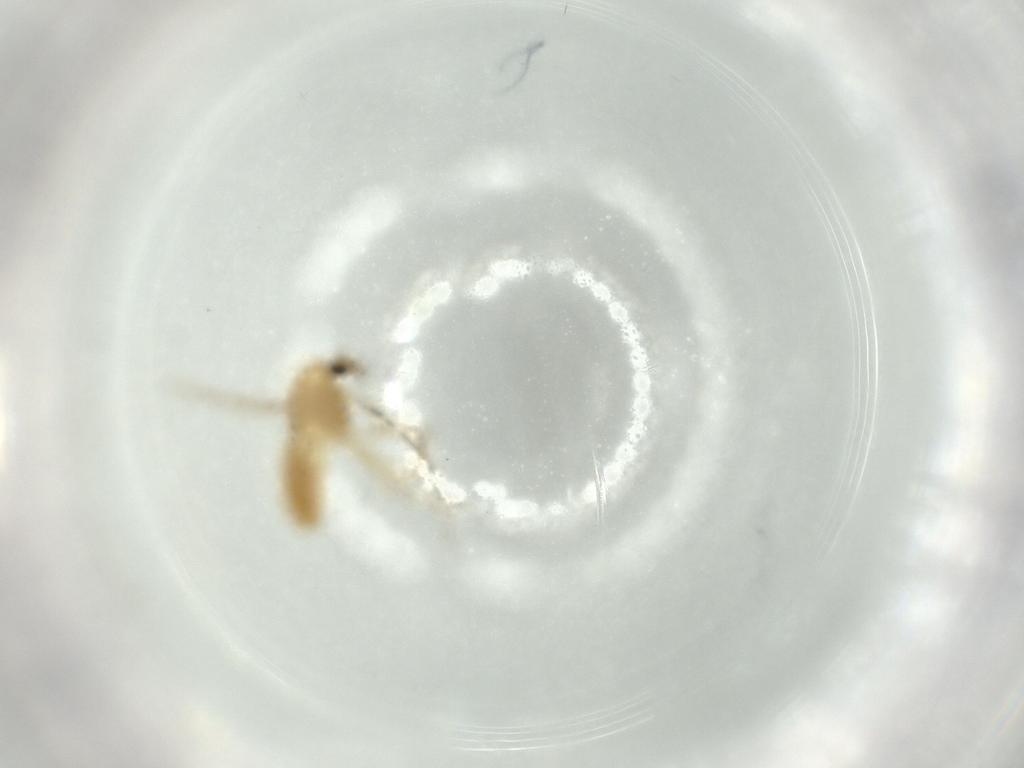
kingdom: Animalia
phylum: Arthropoda
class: Insecta
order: Diptera
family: Chironomidae
